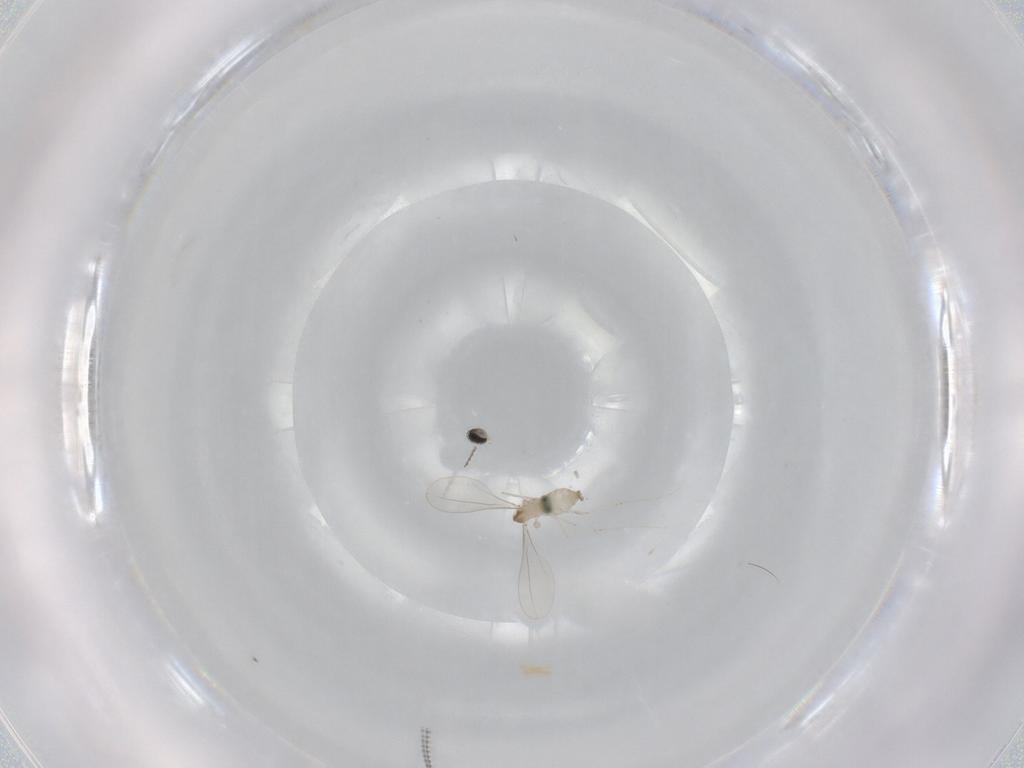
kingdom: Animalia
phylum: Arthropoda
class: Insecta
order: Diptera
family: Cecidomyiidae
